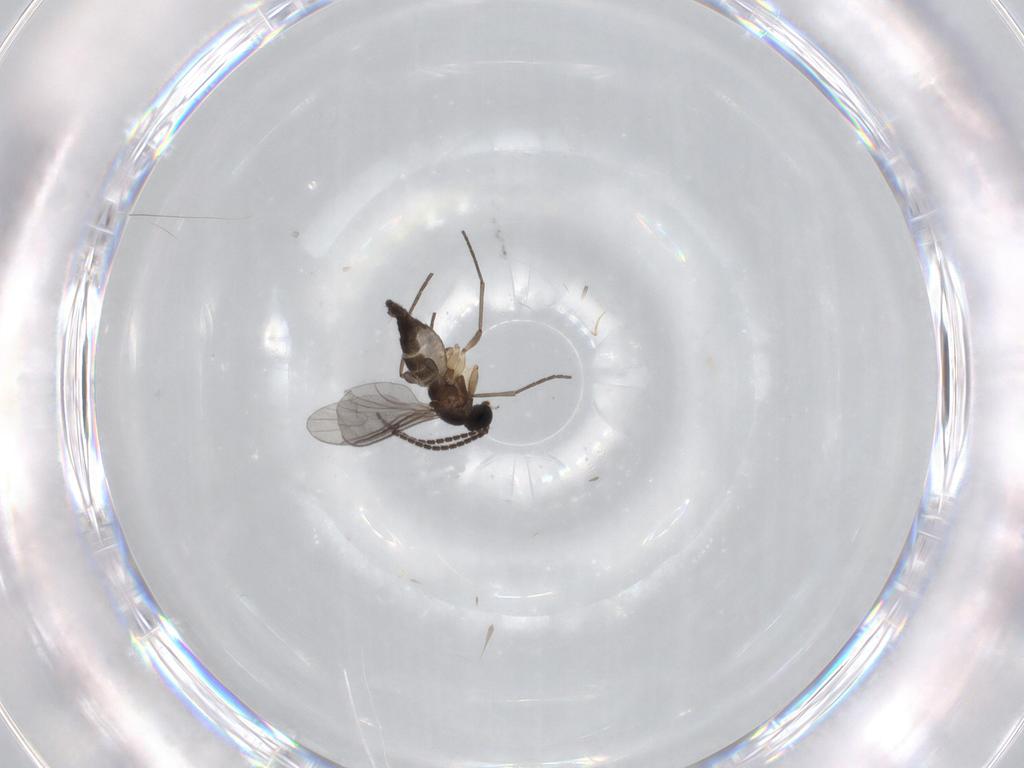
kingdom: Animalia
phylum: Arthropoda
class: Insecta
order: Diptera
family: Sciaridae
